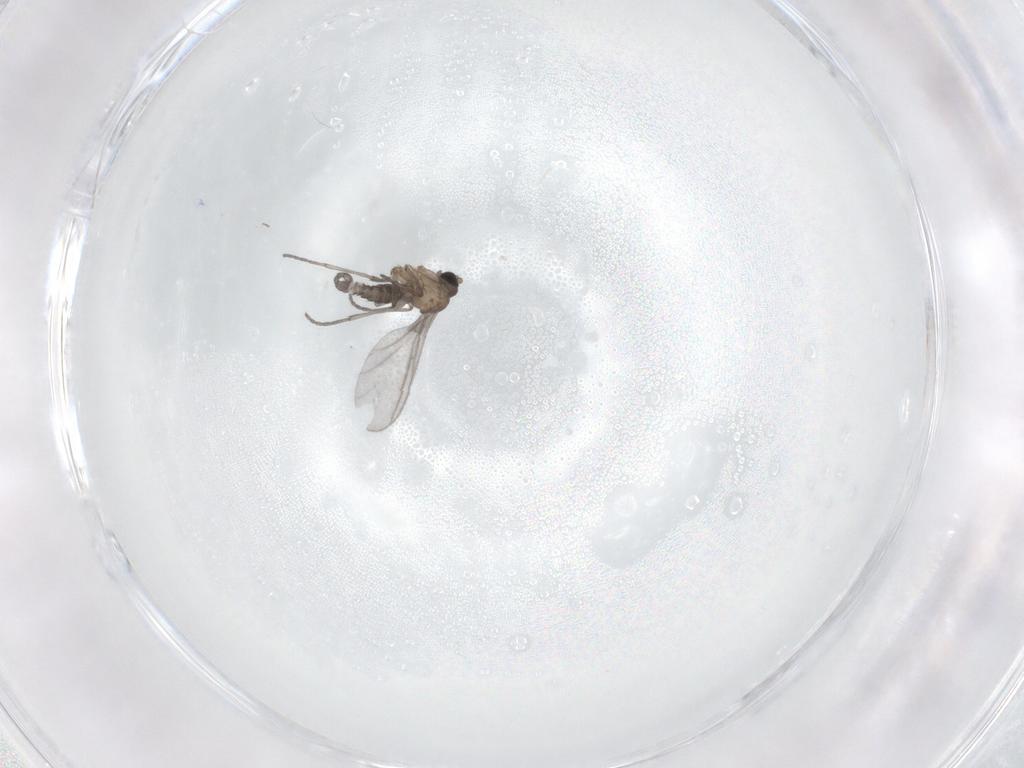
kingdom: Animalia
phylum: Arthropoda
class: Insecta
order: Diptera
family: Sciaridae
